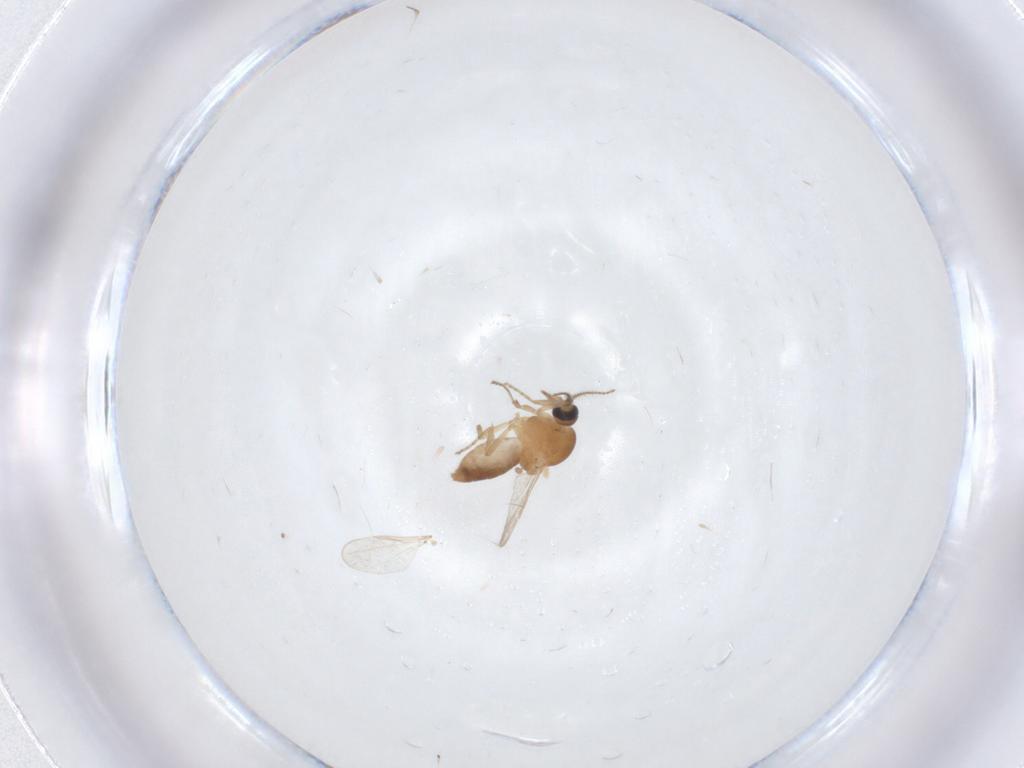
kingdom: Animalia
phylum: Arthropoda
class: Insecta
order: Diptera
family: Ceratopogonidae
